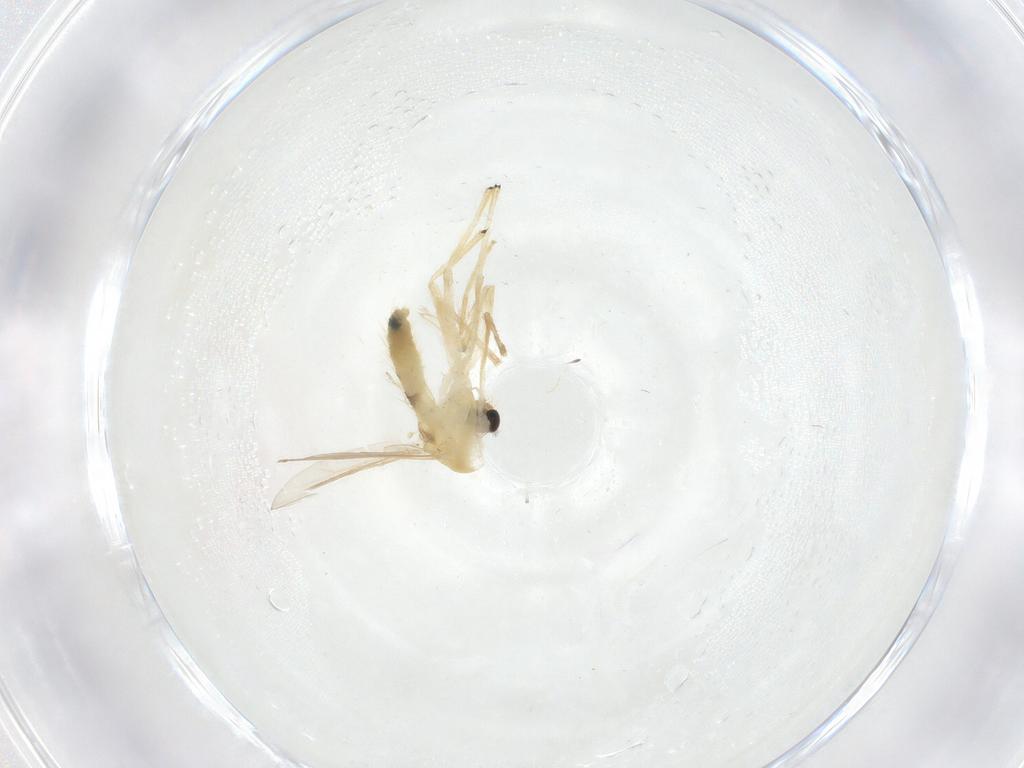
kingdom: Animalia
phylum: Arthropoda
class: Insecta
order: Diptera
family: Chironomidae
